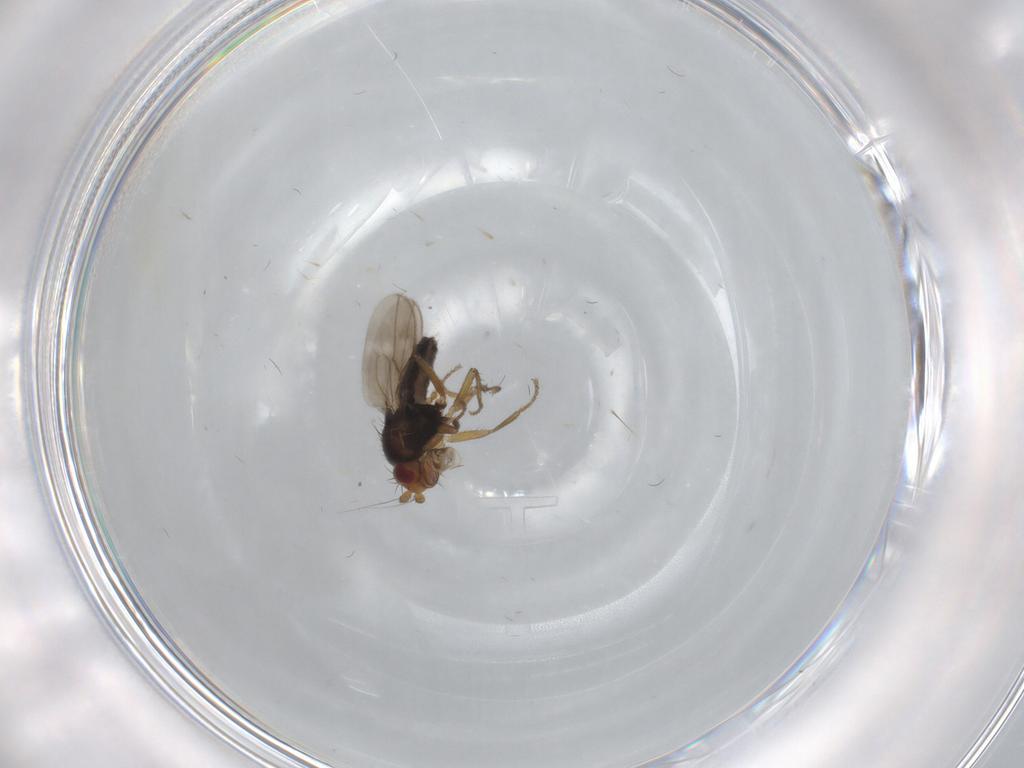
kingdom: Animalia
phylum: Arthropoda
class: Insecta
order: Diptera
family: Sphaeroceridae
